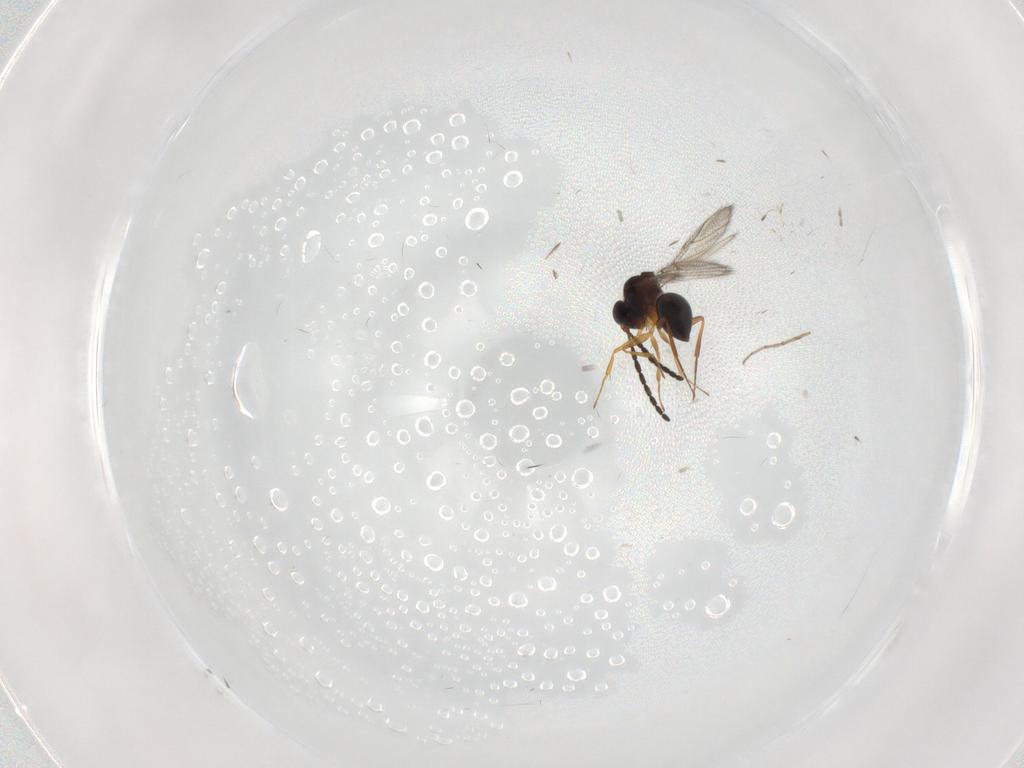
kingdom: Animalia
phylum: Arthropoda
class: Insecta
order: Hymenoptera
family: Figitidae
